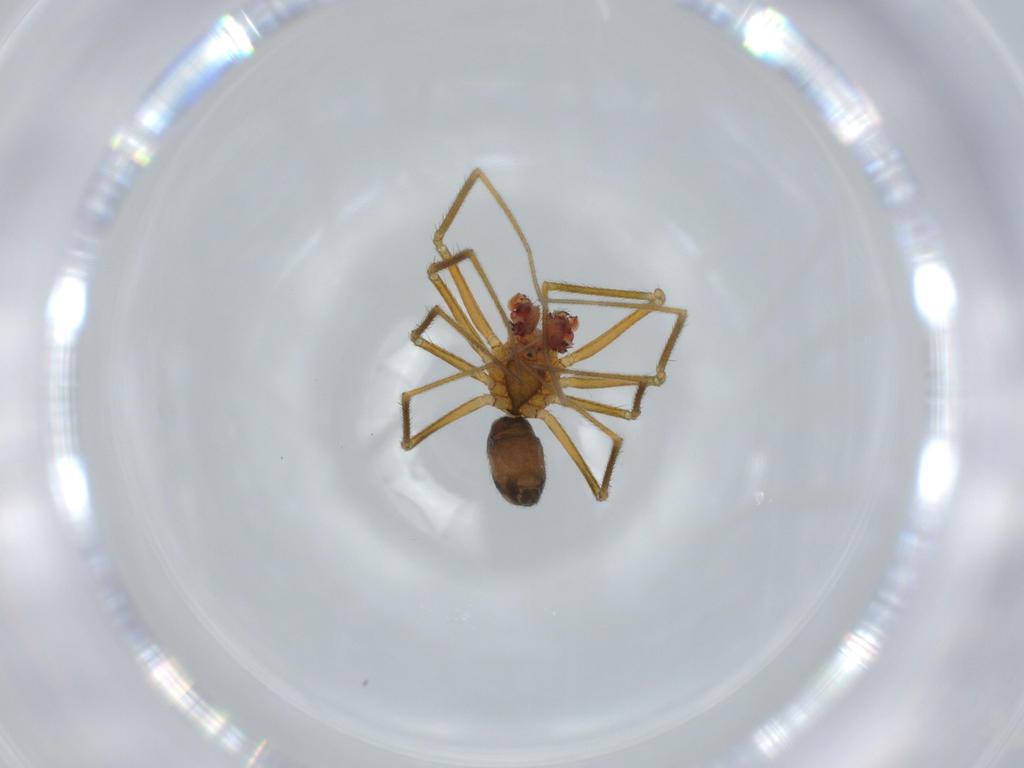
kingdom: Animalia
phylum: Arthropoda
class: Arachnida
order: Araneae
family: Linyphiidae
